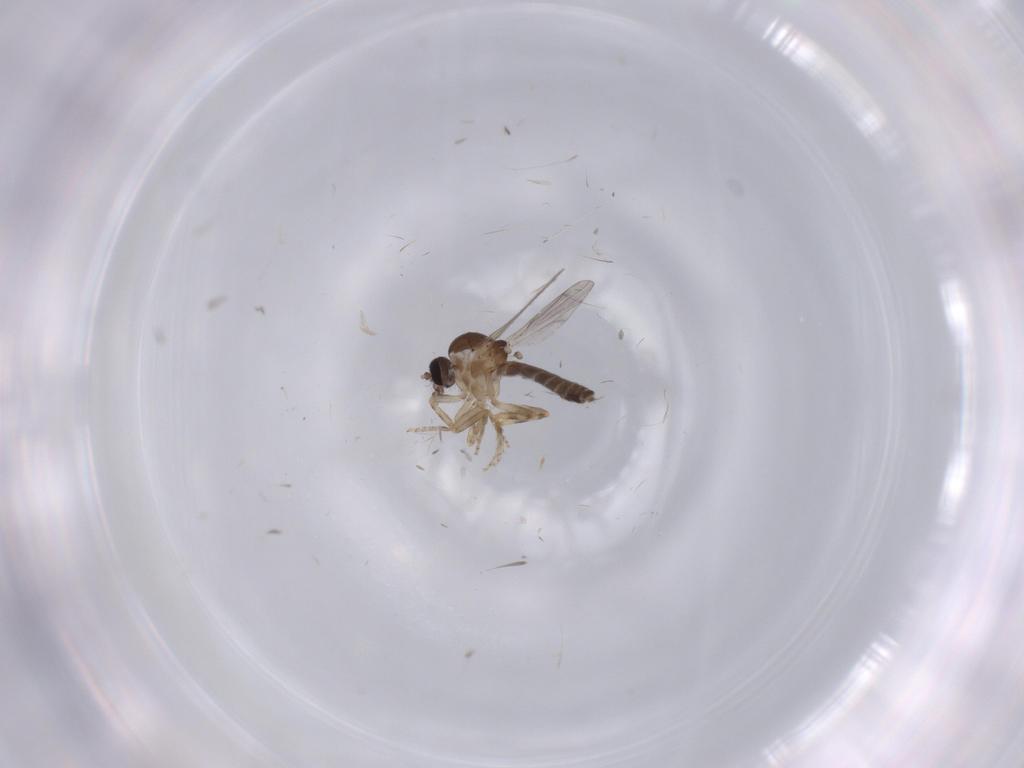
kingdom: Animalia
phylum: Arthropoda
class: Insecta
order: Diptera
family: Ceratopogonidae
